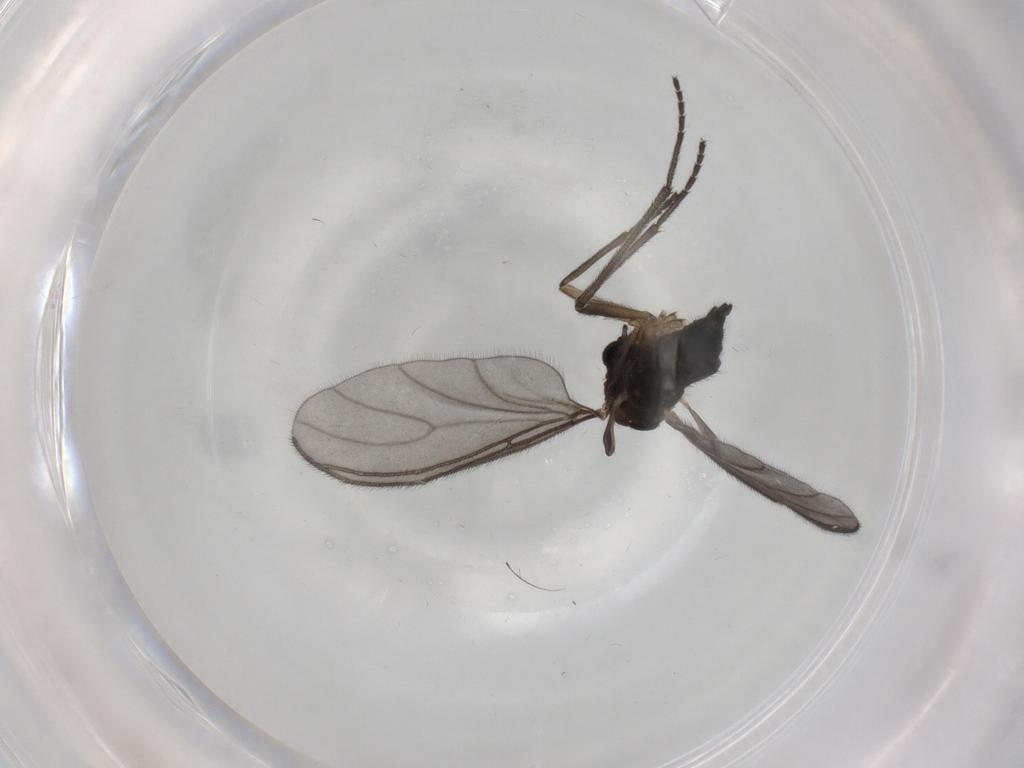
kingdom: Animalia
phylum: Arthropoda
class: Insecta
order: Diptera
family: Sciaridae
